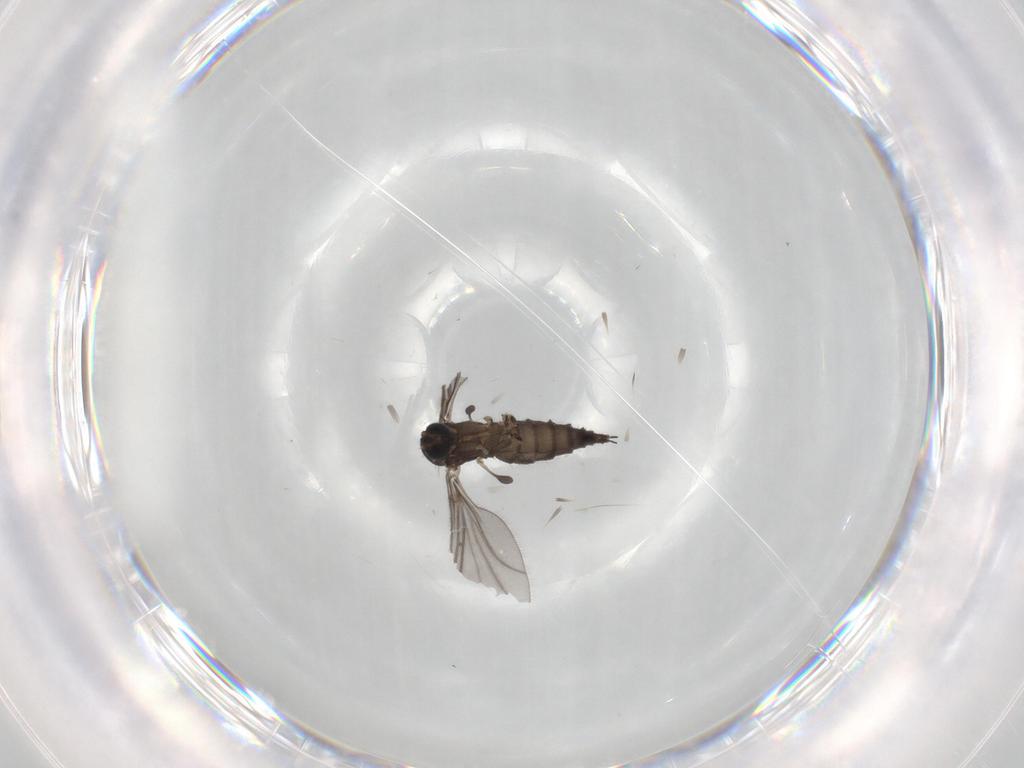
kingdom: Animalia
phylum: Arthropoda
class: Insecta
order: Diptera
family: Sciaridae
